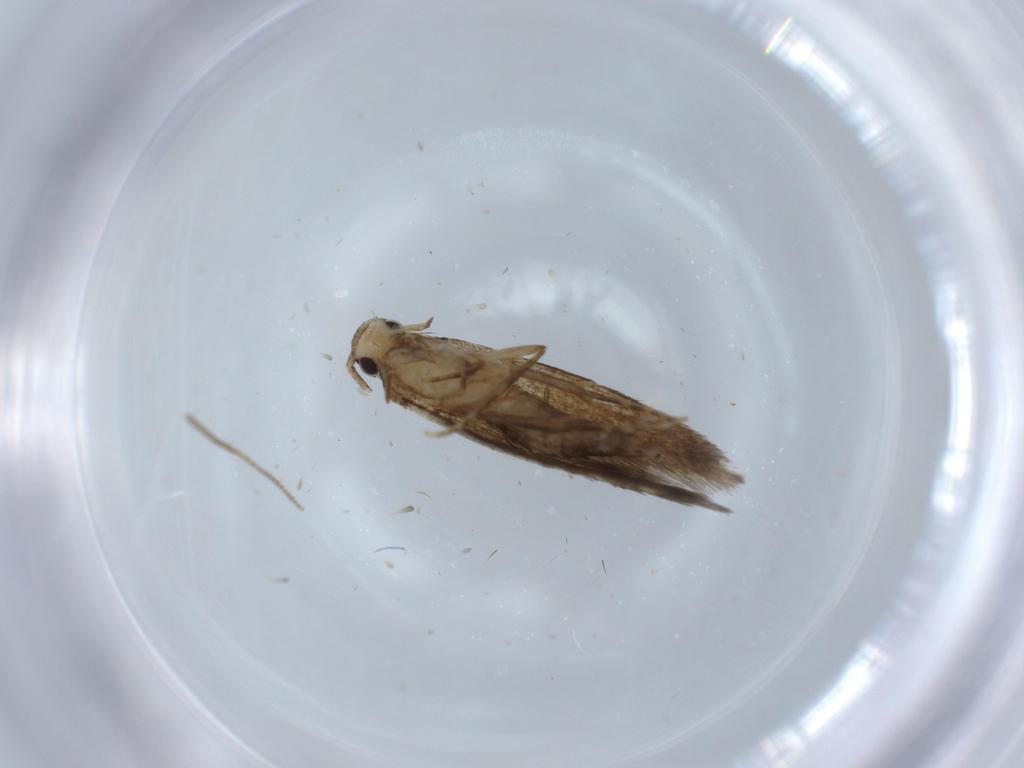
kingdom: Animalia
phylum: Arthropoda
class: Insecta
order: Lepidoptera
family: Tineidae
